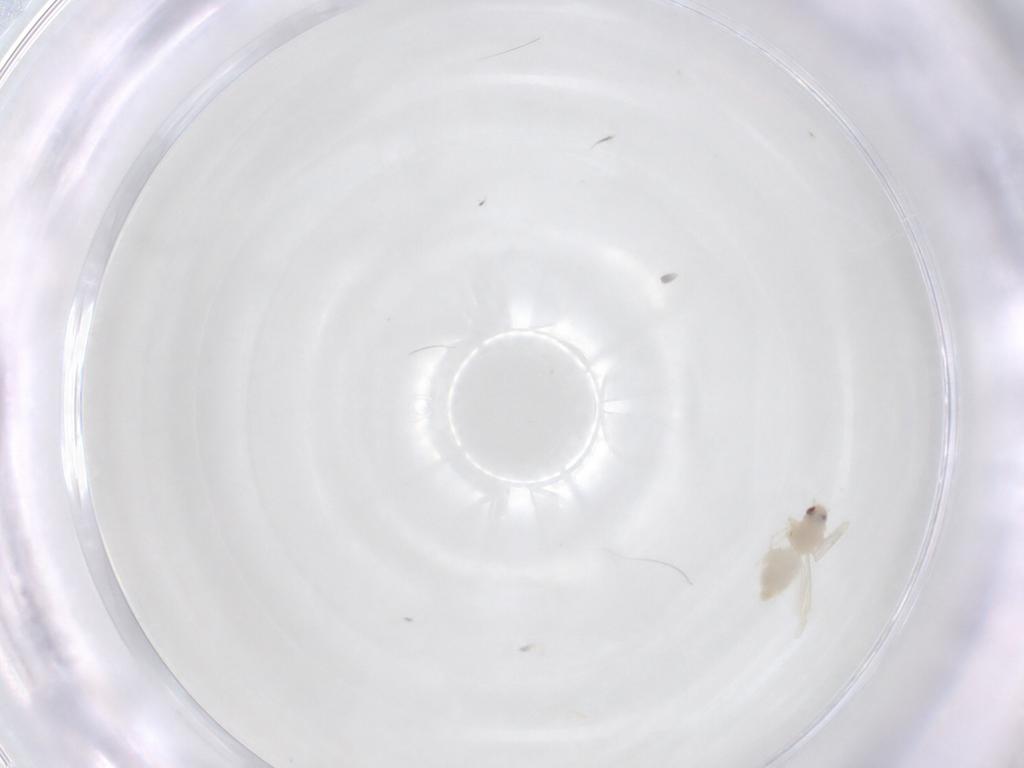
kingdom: Animalia
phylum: Arthropoda
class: Insecta
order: Hemiptera
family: Aleyrodidae
